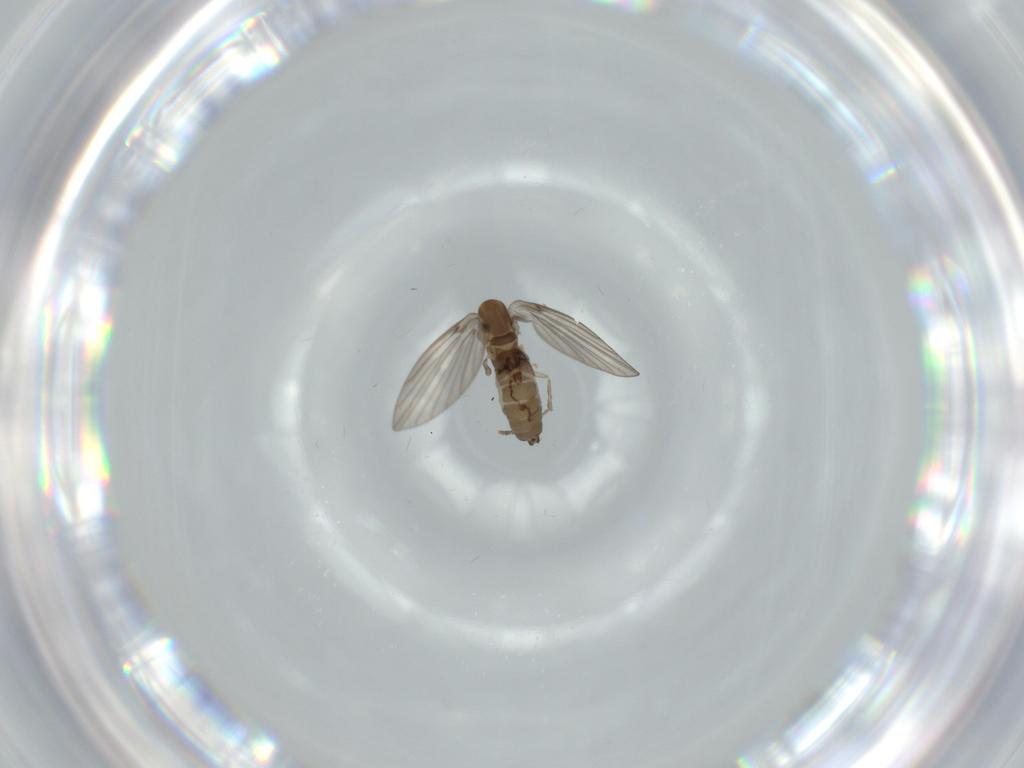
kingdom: Animalia
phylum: Arthropoda
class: Insecta
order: Diptera
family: Psychodidae
